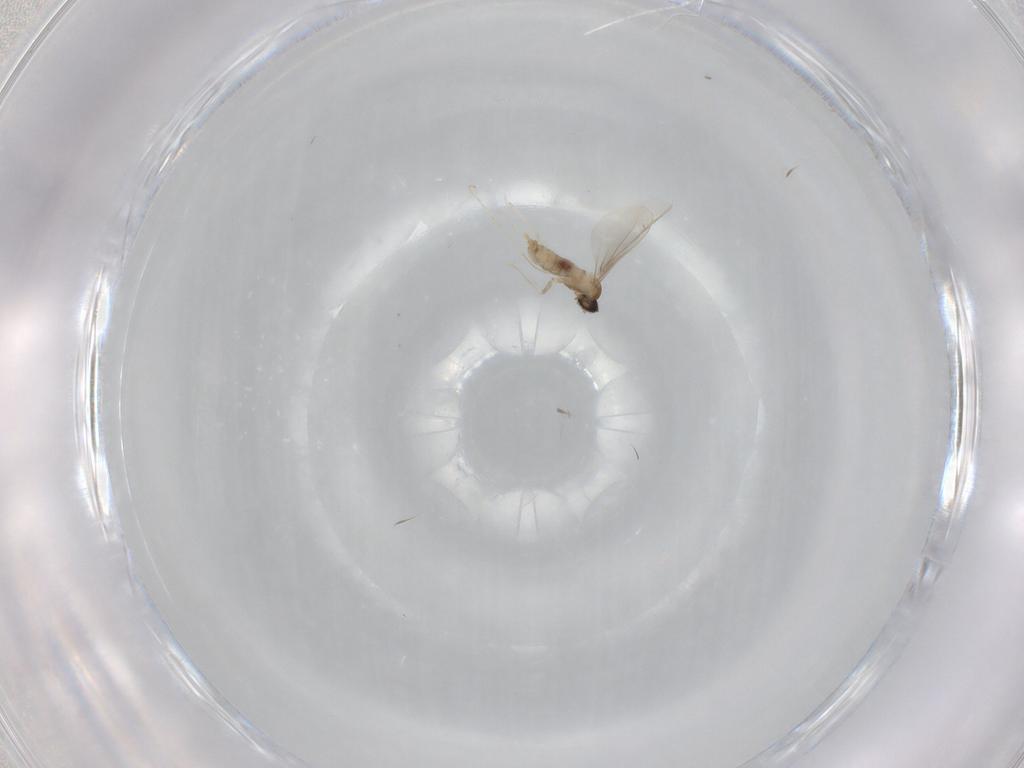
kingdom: Animalia
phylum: Arthropoda
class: Insecta
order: Diptera
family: Cecidomyiidae
